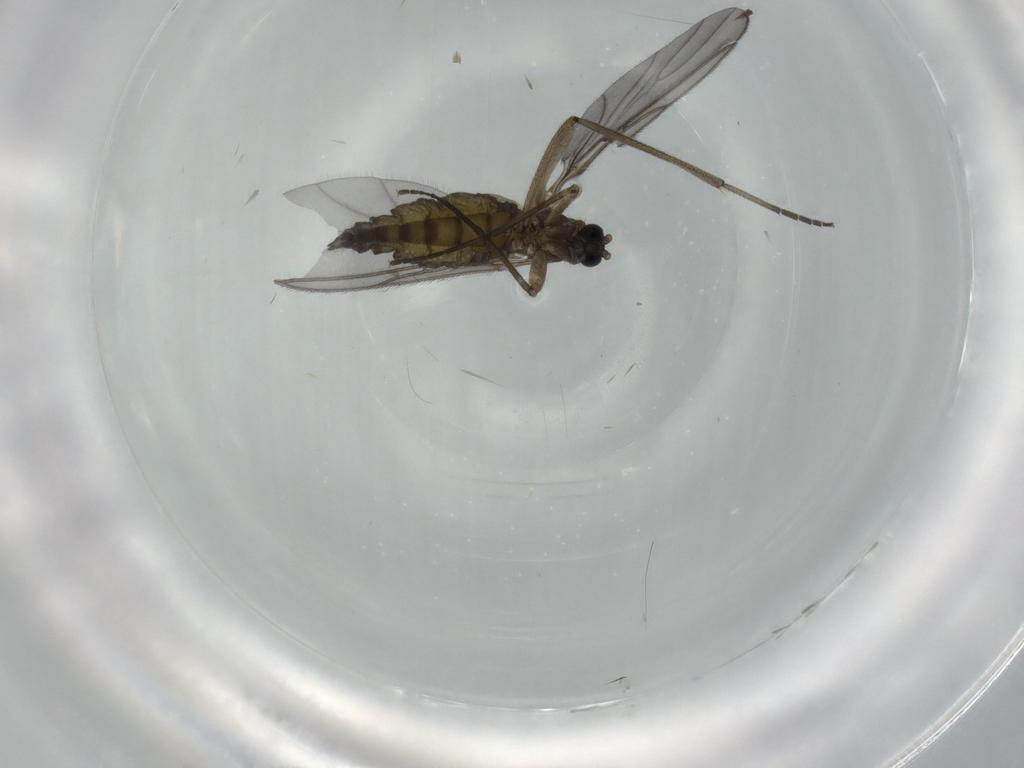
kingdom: Animalia
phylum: Arthropoda
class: Insecta
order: Diptera
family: Sciaridae
